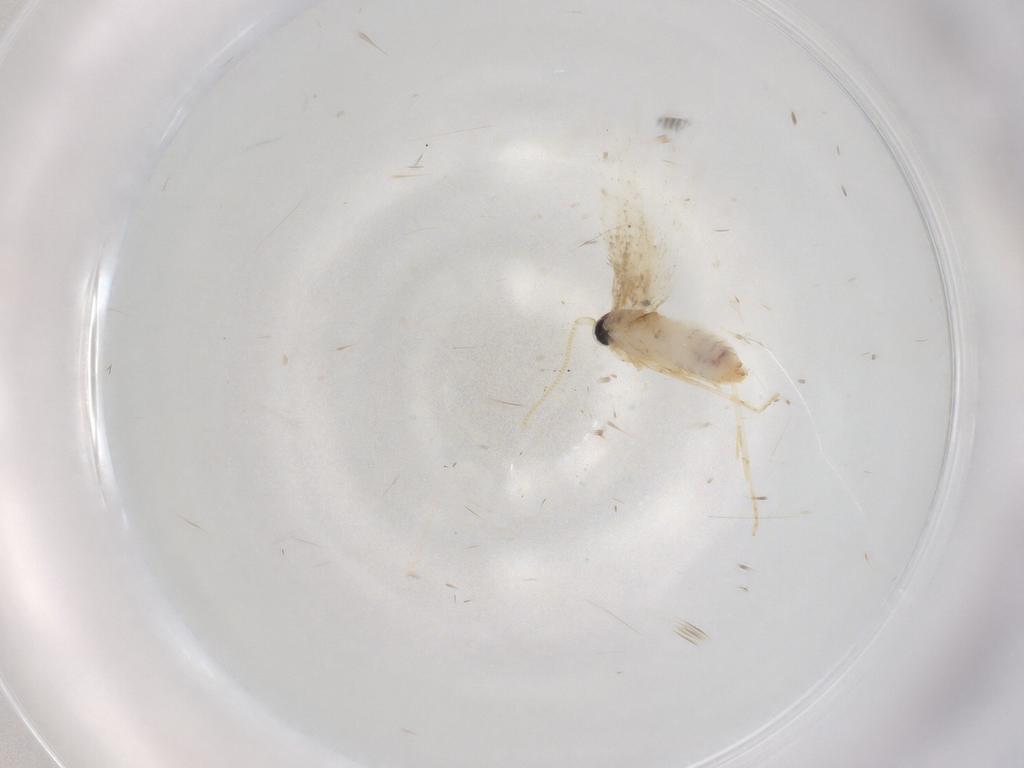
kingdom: Animalia
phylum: Arthropoda
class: Insecta
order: Lepidoptera
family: Nepticulidae
